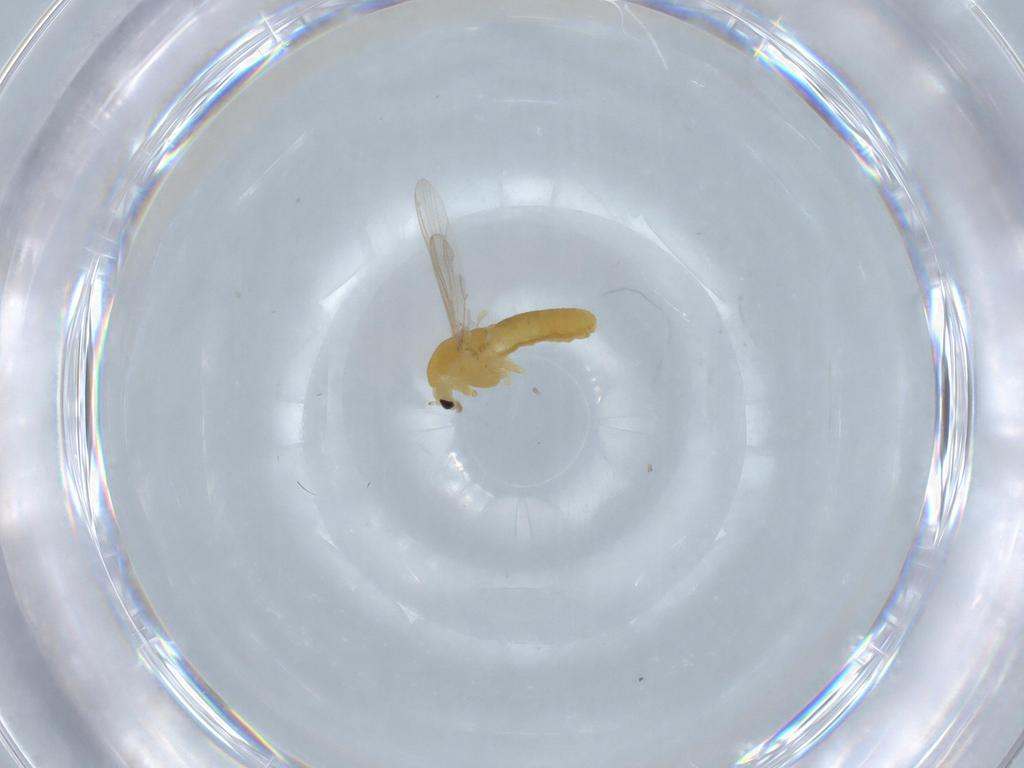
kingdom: Animalia
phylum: Arthropoda
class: Insecta
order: Diptera
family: Chironomidae
